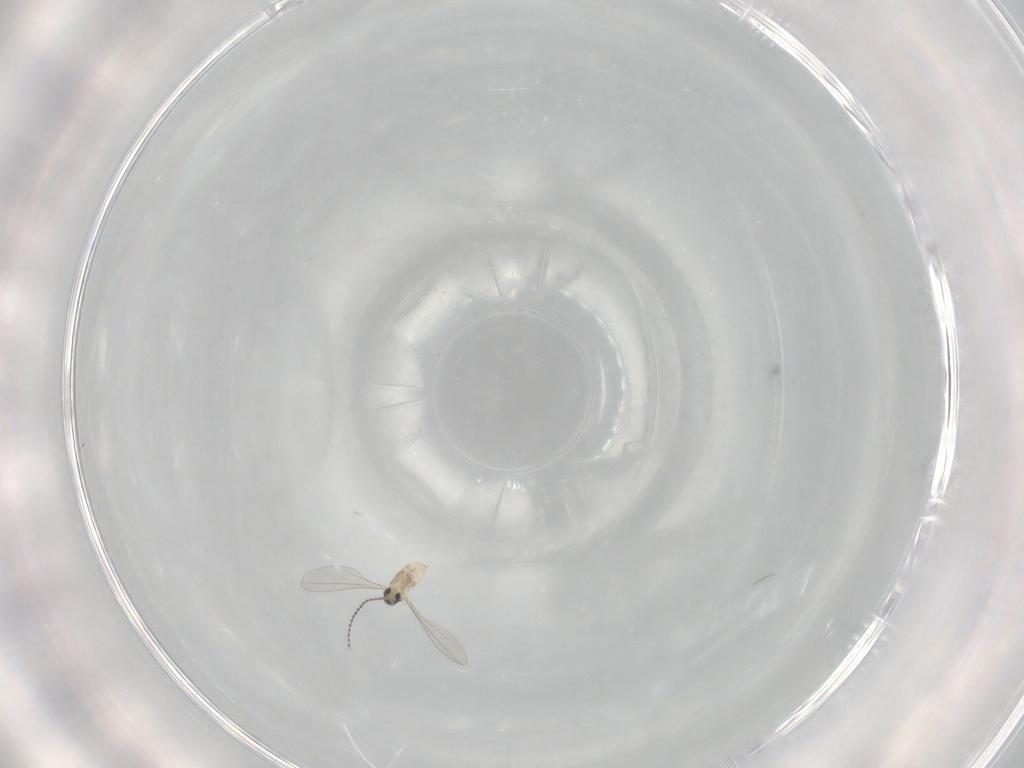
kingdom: Animalia
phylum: Arthropoda
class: Insecta
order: Diptera
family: Cecidomyiidae
